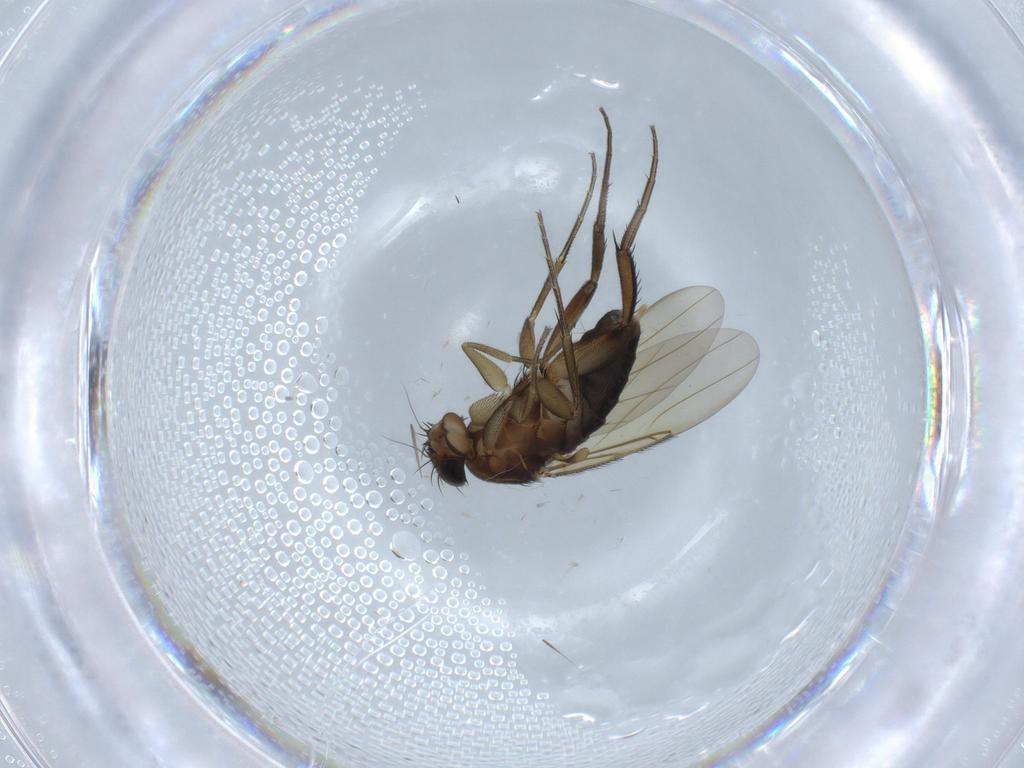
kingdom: Animalia
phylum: Arthropoda
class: Insecta
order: Diptera
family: Phoridae
